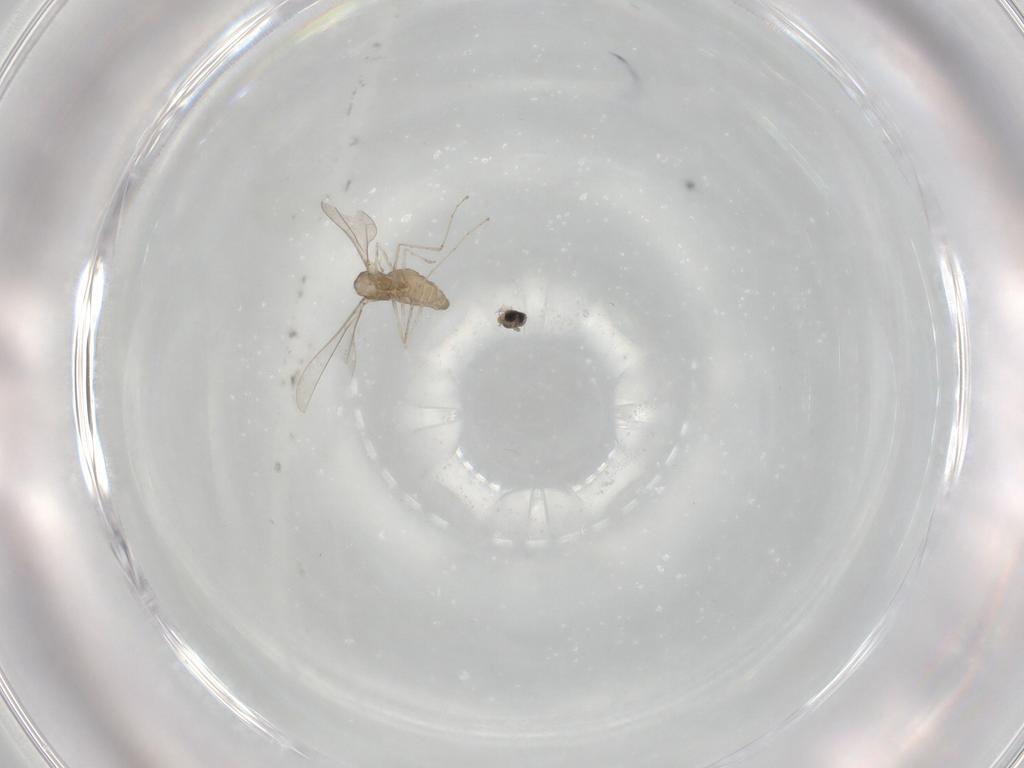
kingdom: Animalia
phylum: Arthropoda
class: Insecta
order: Diptera
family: Cecidomyiidae
